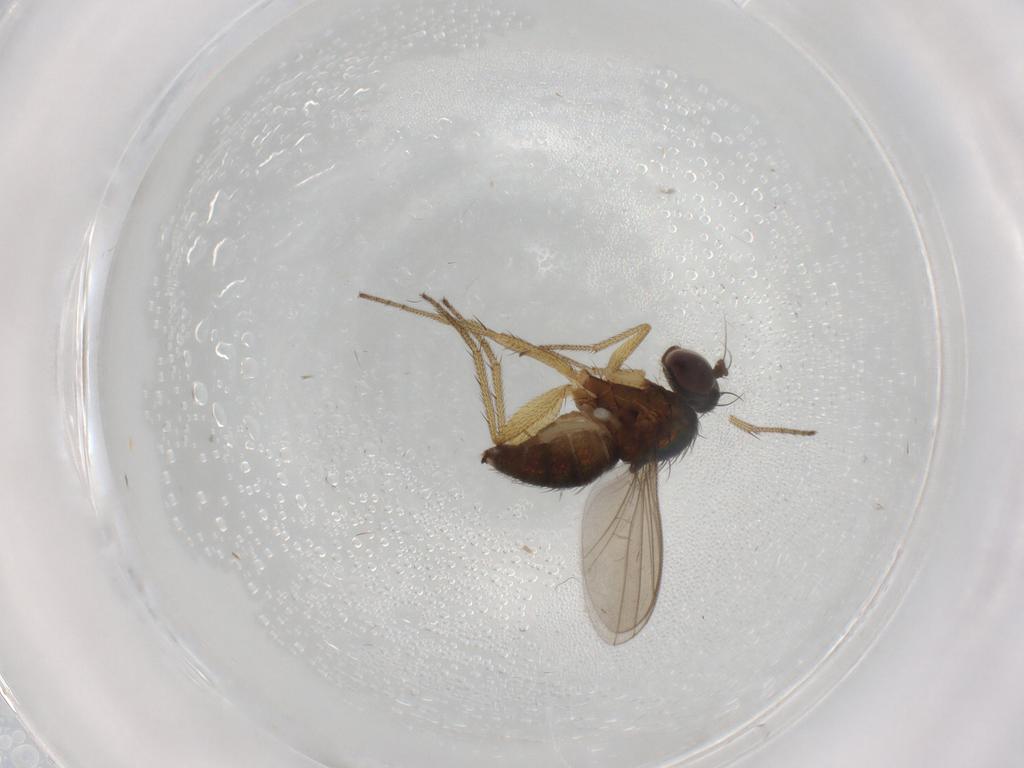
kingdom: Animalia
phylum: Arthropoda
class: Insecta
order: Diptera
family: Chironomidae
